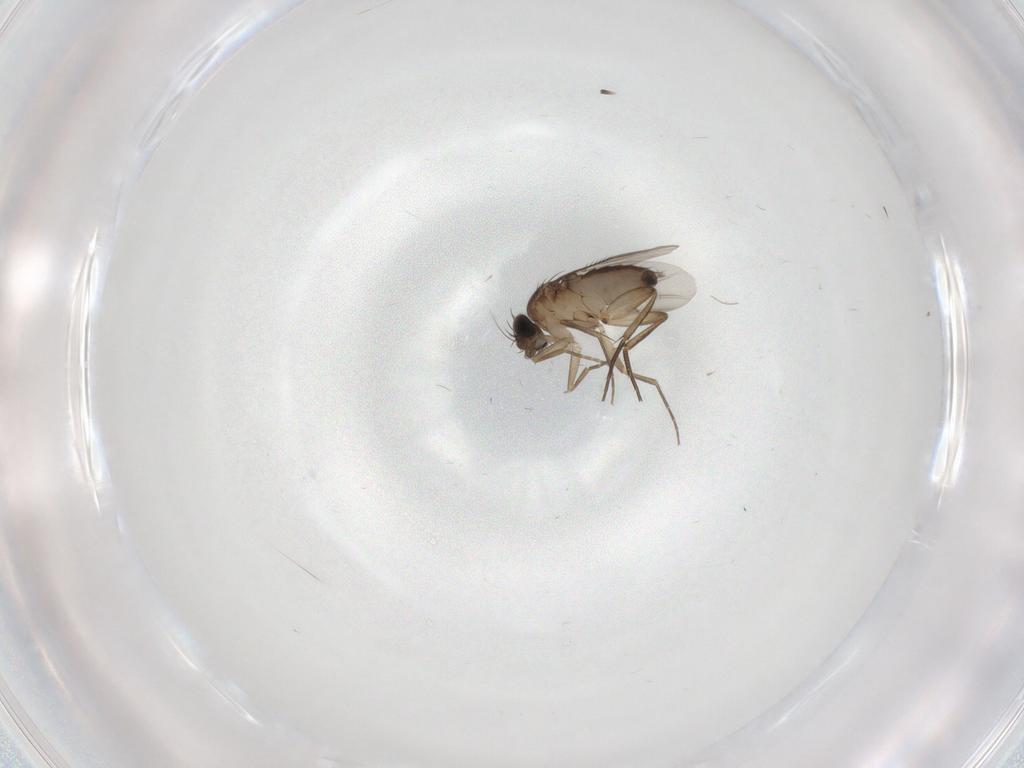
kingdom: Animalia
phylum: Arthropoda
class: Insecta
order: Diptera
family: Phoridae
